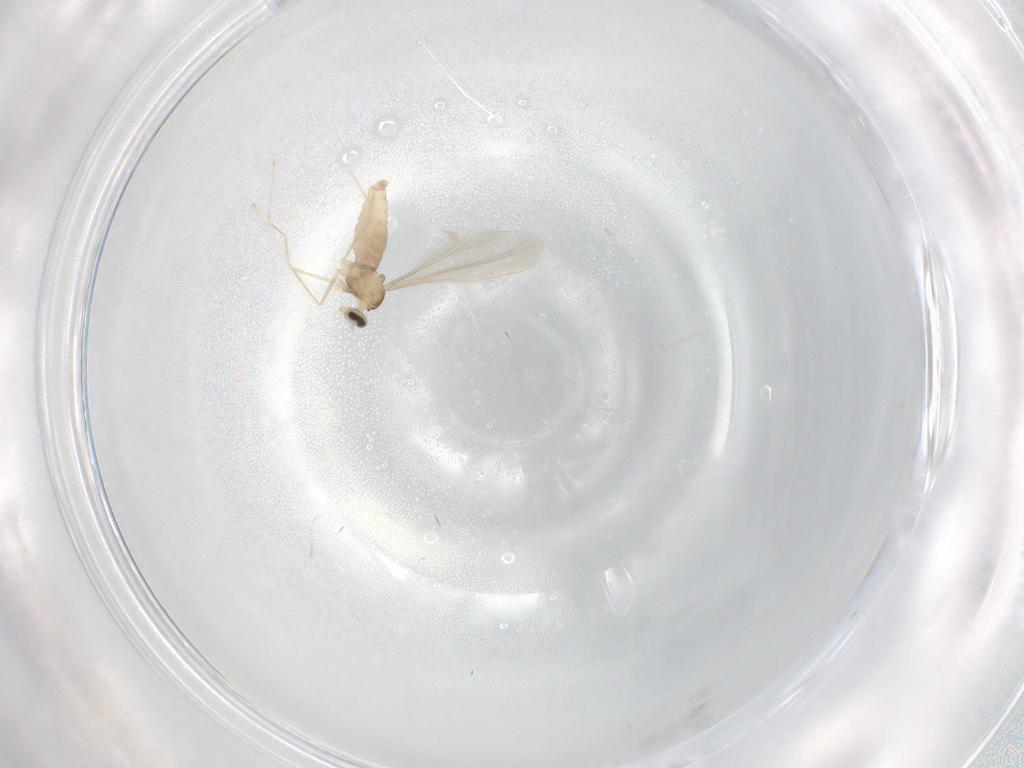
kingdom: Animalia
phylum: Arthropoda
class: Insecta
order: Diptera
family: Cecidomyiidae
